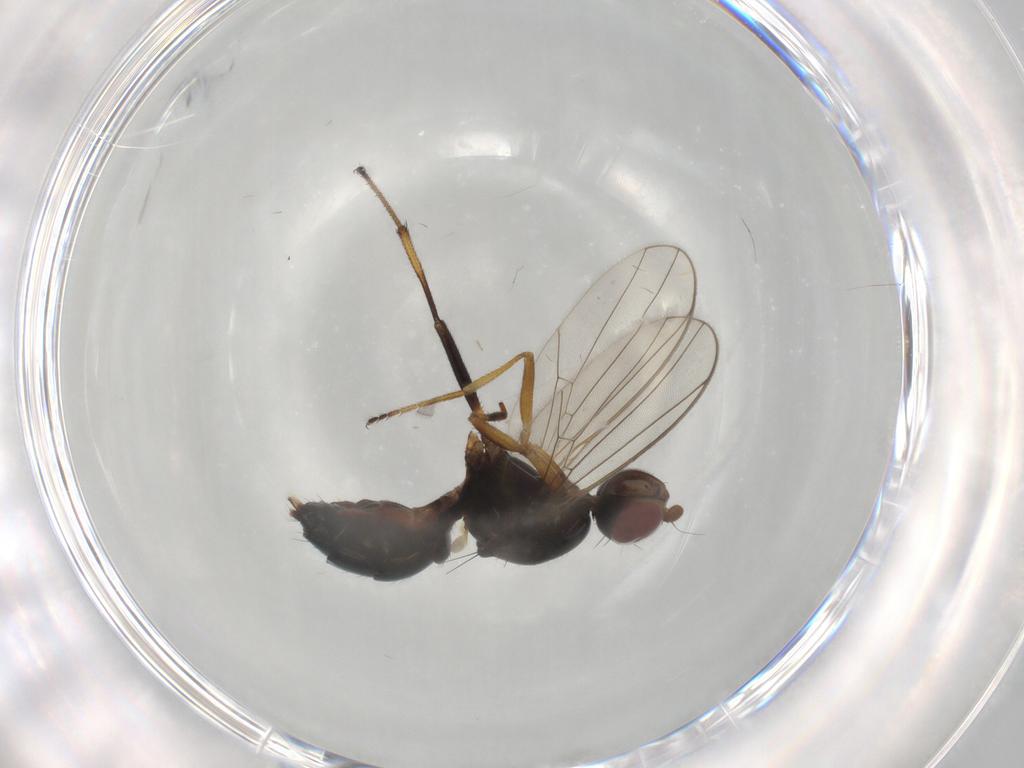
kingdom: Animalia
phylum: Arthropoda
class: Insecta
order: Diptera
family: Sepsidae
